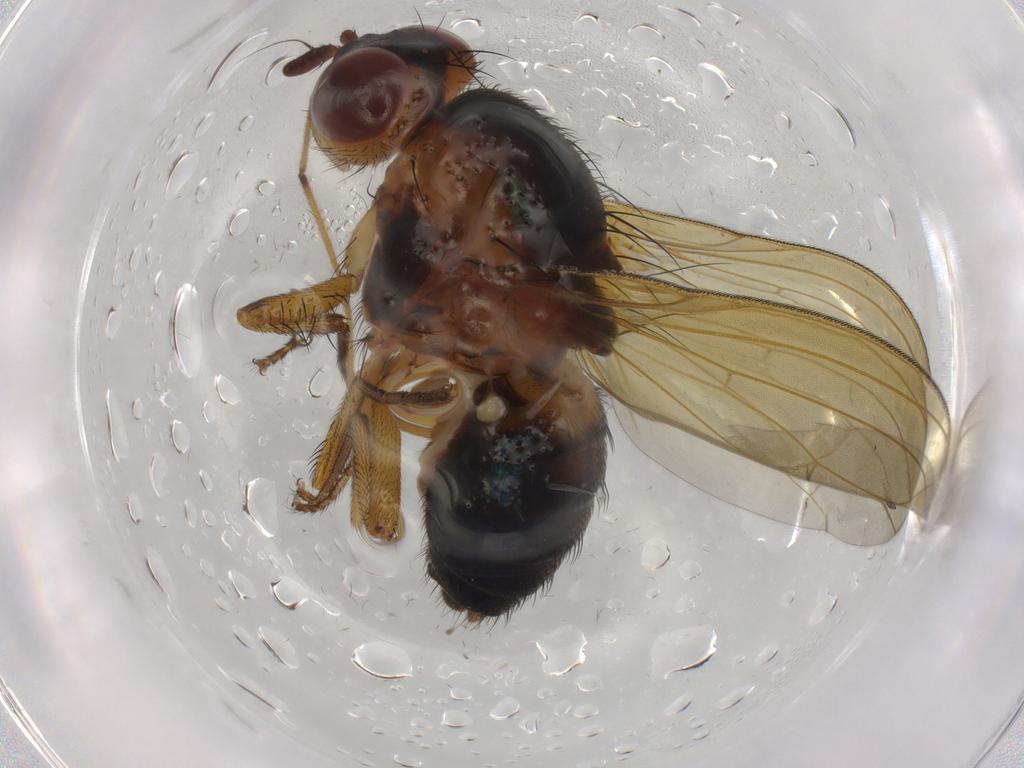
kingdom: Animalia
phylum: Arthropoda
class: Insecta
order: Diptera
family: Chironomidae
